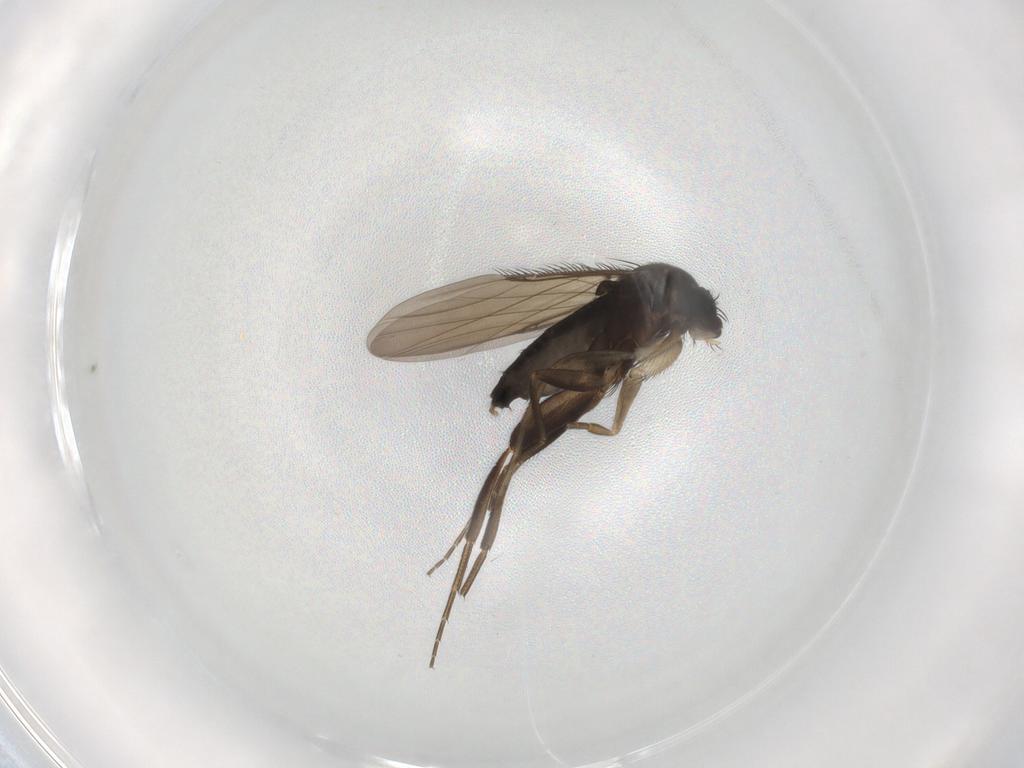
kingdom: Animalia
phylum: Arthropoda
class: Insecta
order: Diptera
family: Phoridae
